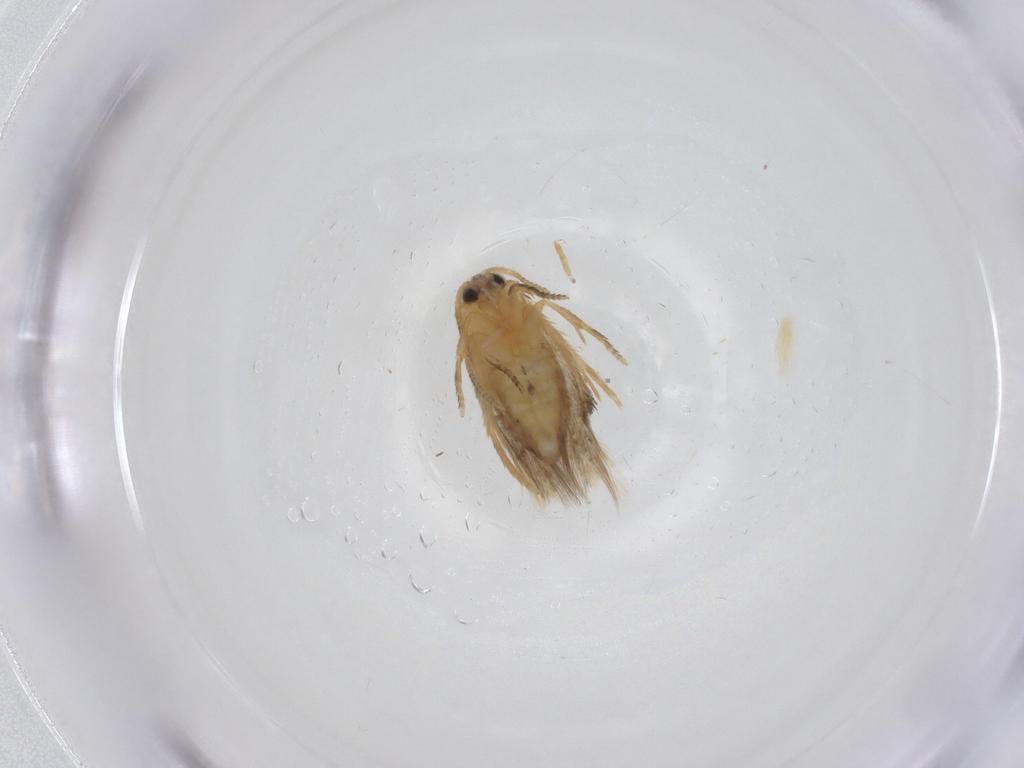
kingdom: Animalia
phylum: Arthropoda
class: Insecta
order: Lepidoptera
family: Nepticulidae
